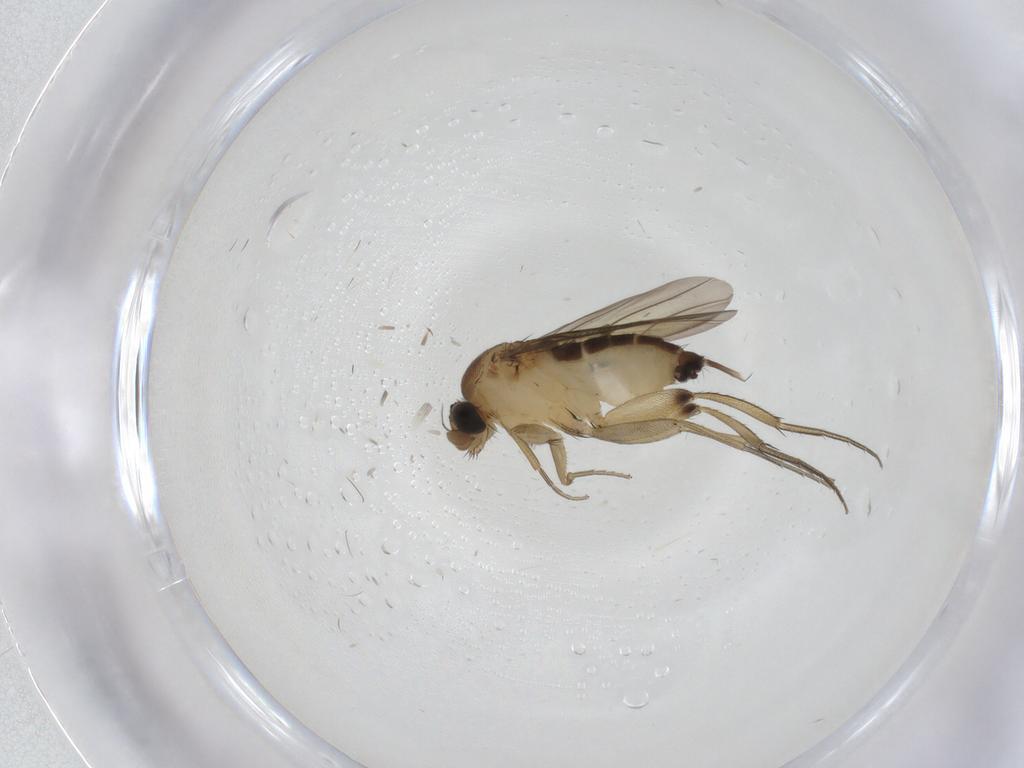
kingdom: Animalia
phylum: Arthropoda
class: Insecta
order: Diptera
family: Phoridae
